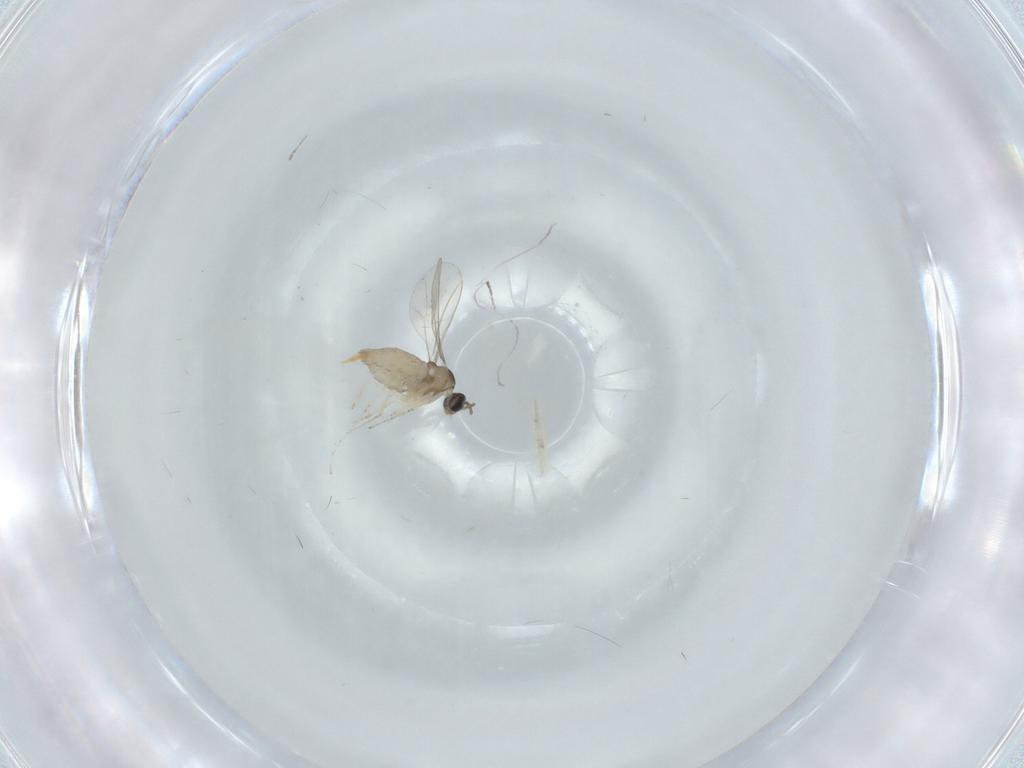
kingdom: Animalia
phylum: Arthropoda
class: Insecta
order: Diptera
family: Cecidomyiidae
